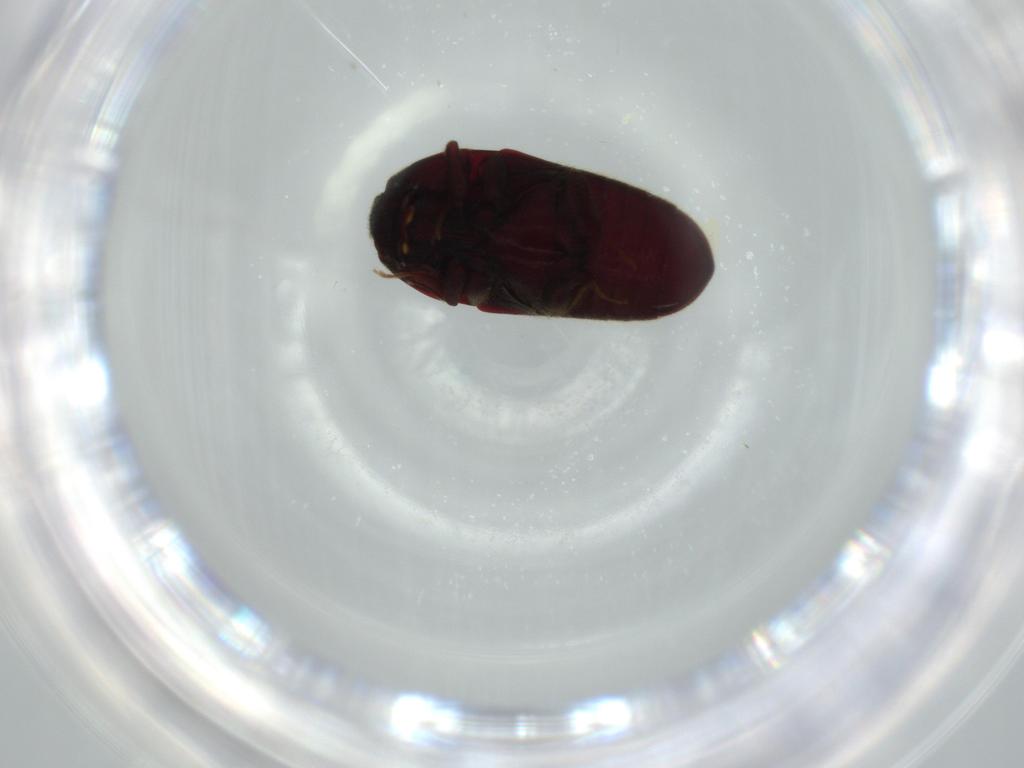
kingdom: Animalia
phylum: Arthropoda
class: Insecta
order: Coleoptera
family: Throscidae
